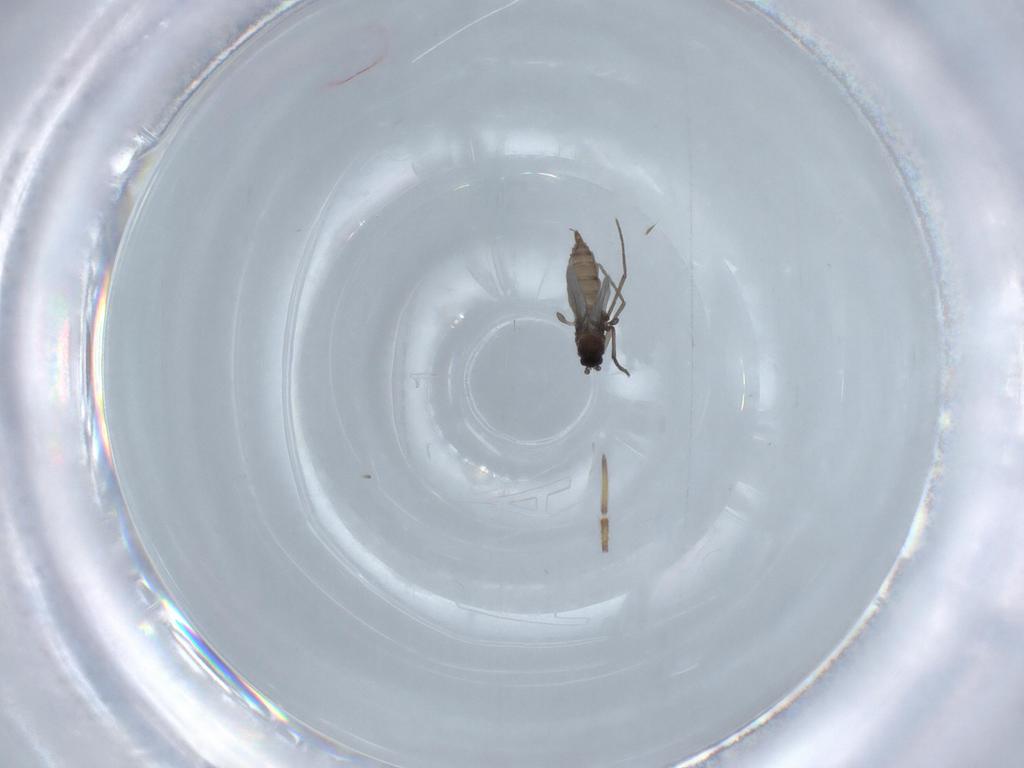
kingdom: Animalia
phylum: Arthropoda
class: Insecta
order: Diptera
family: Sciaridae
